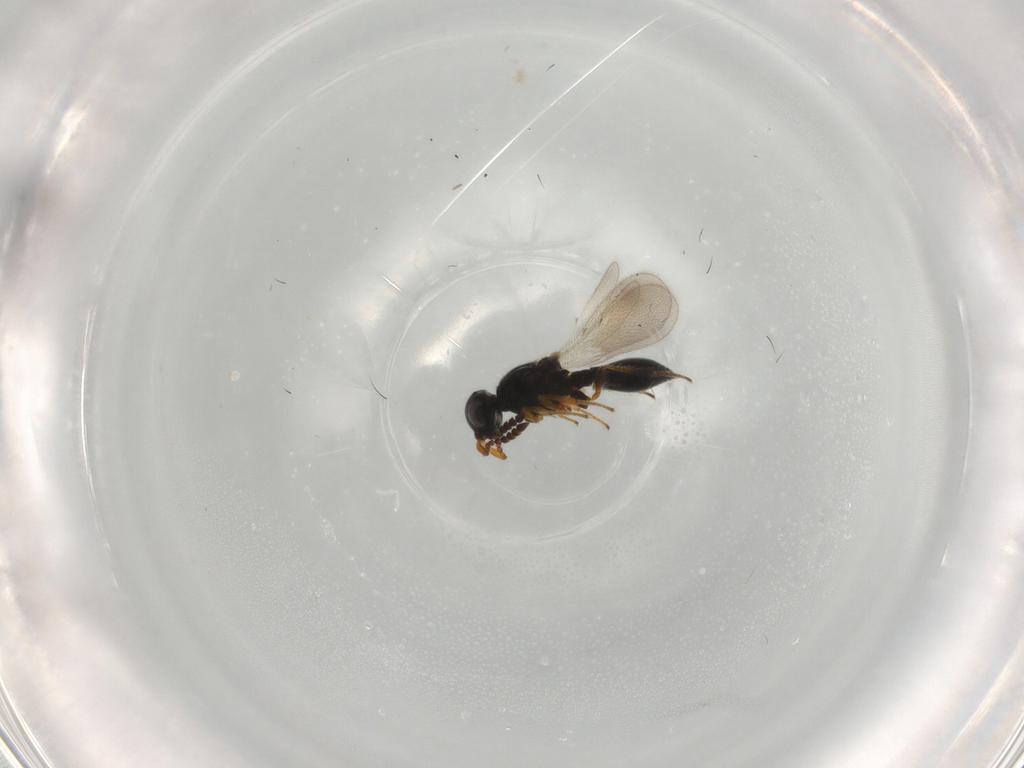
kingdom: Animalia
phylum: Arthropoda
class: Insecta
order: Hymenoptera
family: Platygastridae
